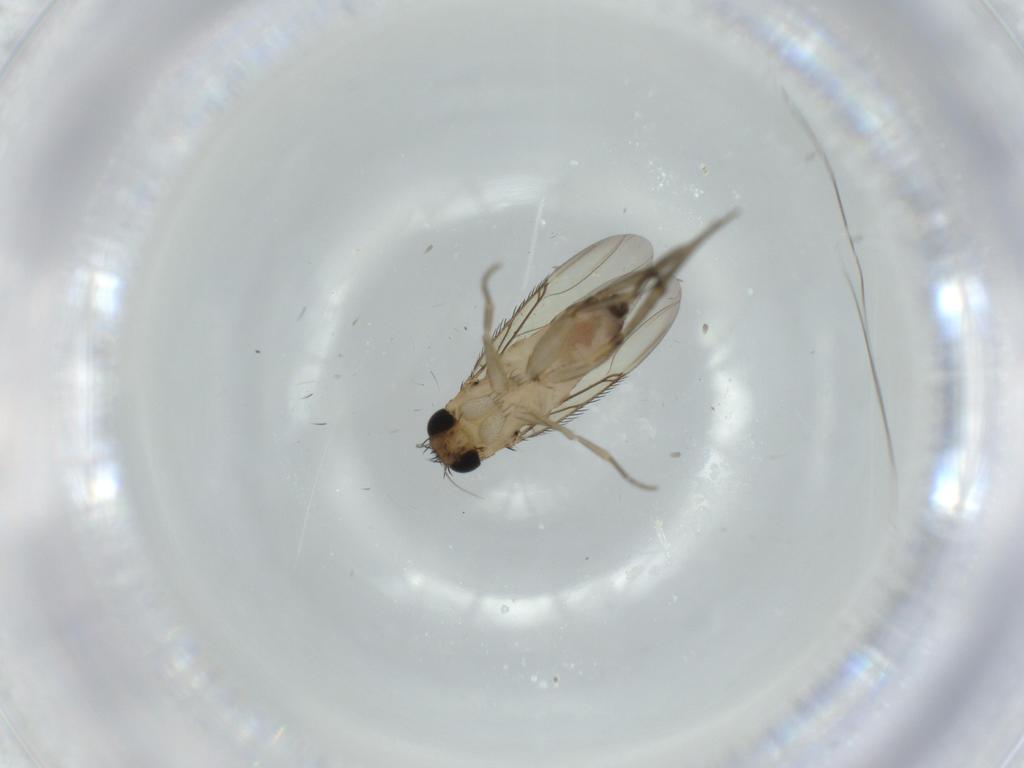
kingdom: Animalia
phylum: Arthropoda
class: Insecta
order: Diptera
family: Phoridae
